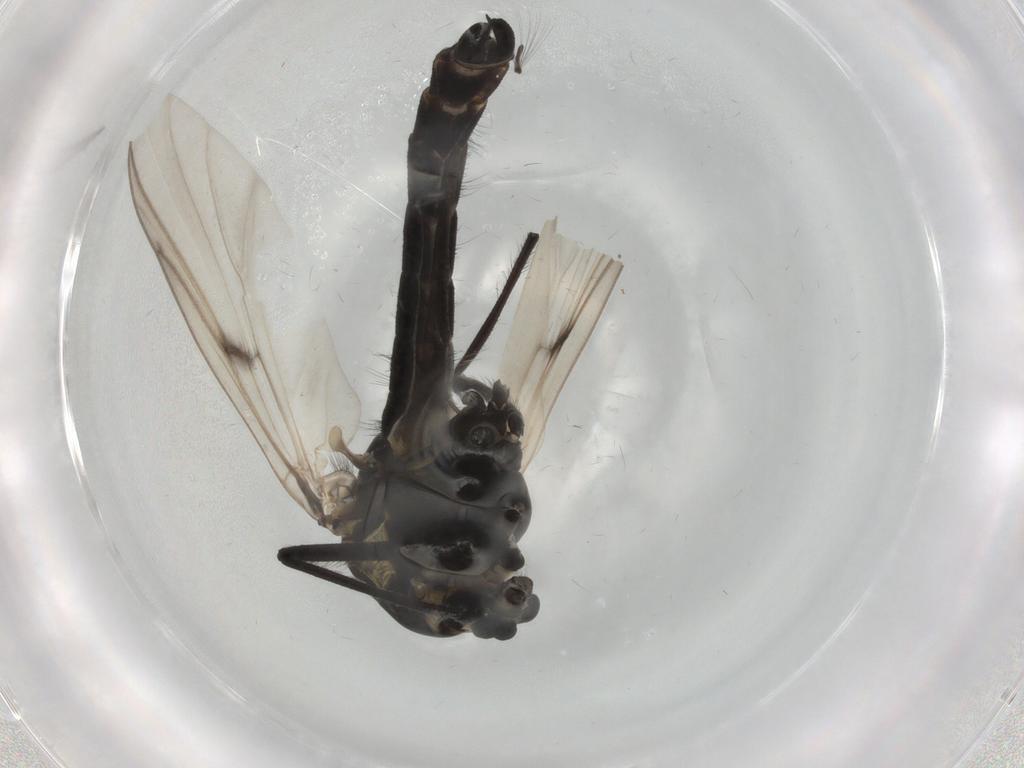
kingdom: Animalia
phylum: Arthropoda
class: Insecta
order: Diptera
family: Chironomidae
